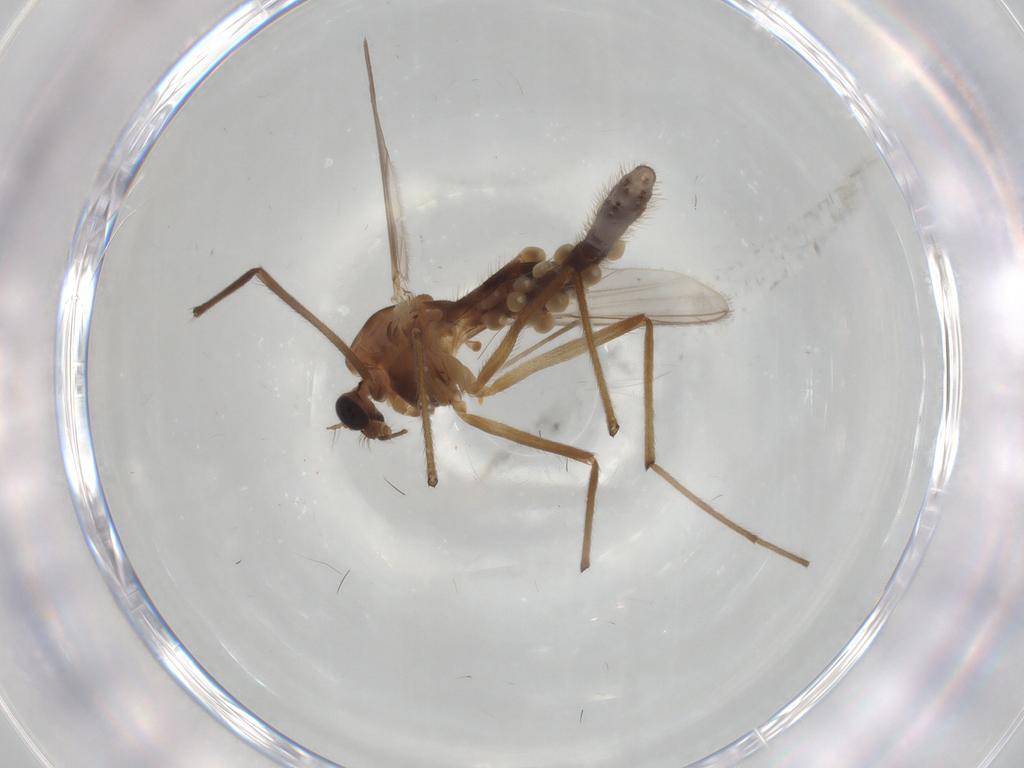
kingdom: Animalia
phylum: Arthropoda
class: Insecta
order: Diptera
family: Chironomidae
